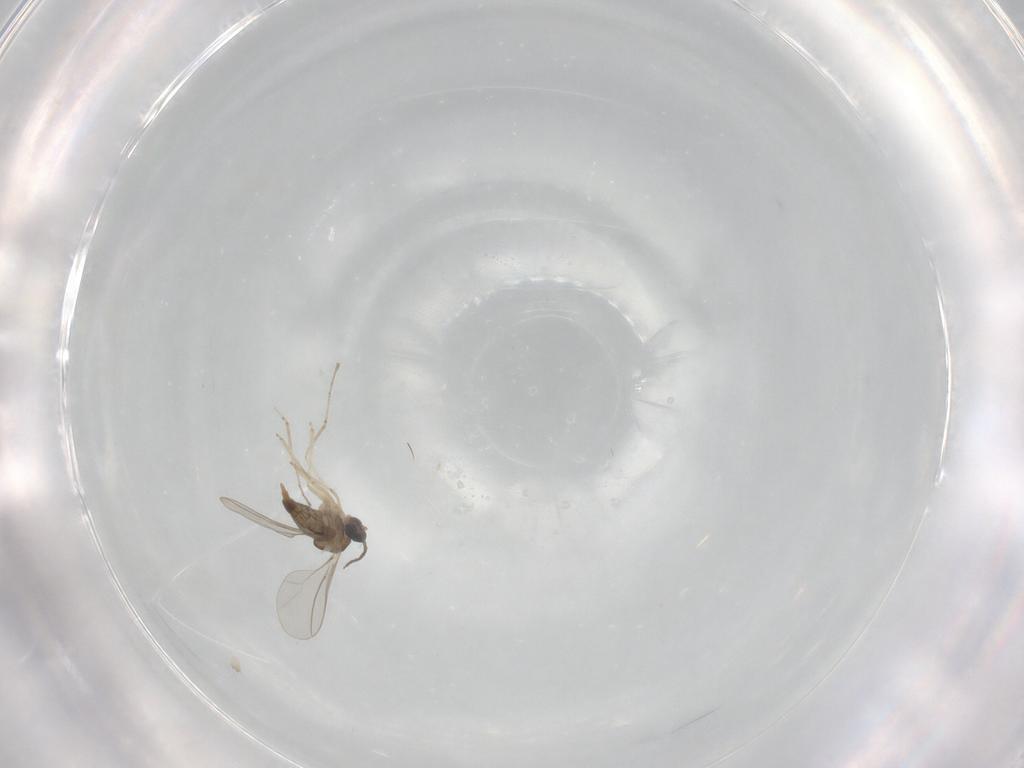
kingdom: Animalia
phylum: Arthropoda
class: Insecta
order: Diptera
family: Cecidomyiidae
